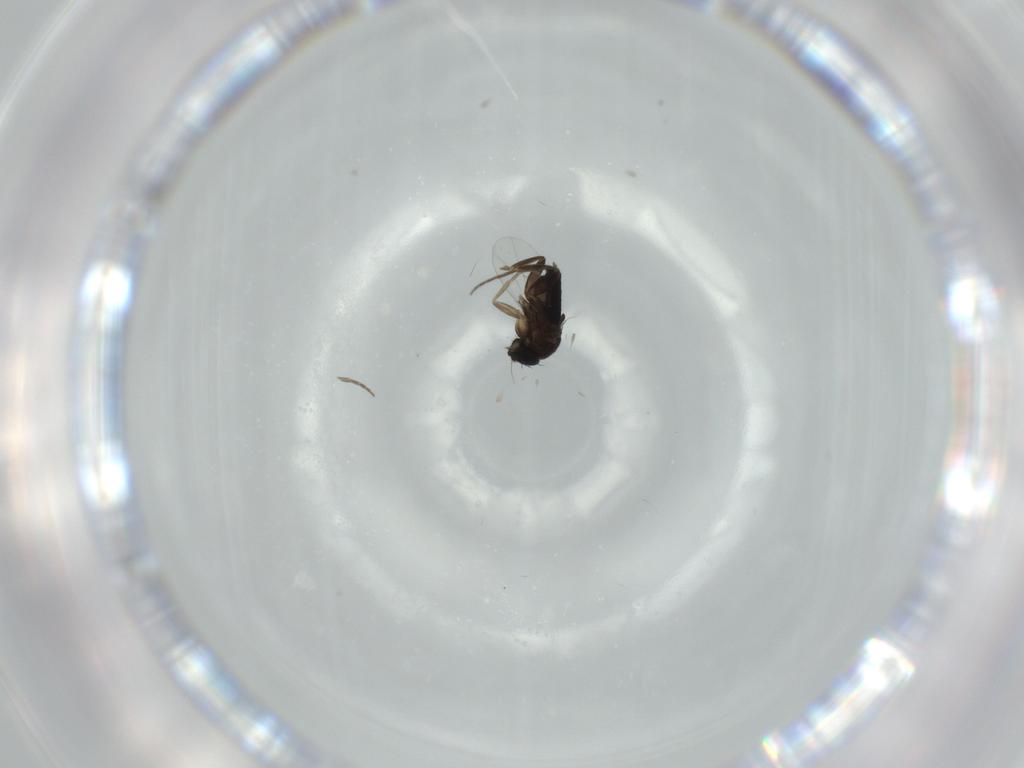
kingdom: Animalia
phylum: Arthropoda
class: Insecta
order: Diptera
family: Phoridae
